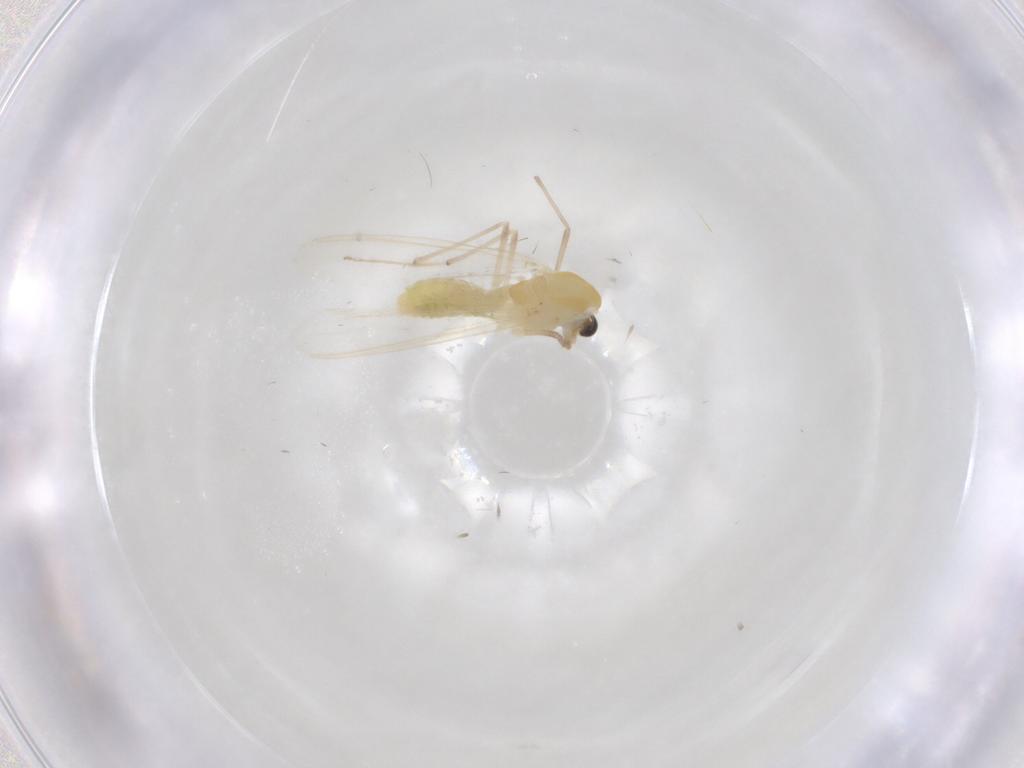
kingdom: Animalia
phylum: Arthropoda
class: Insecta
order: Diptera
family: Chironomidae
